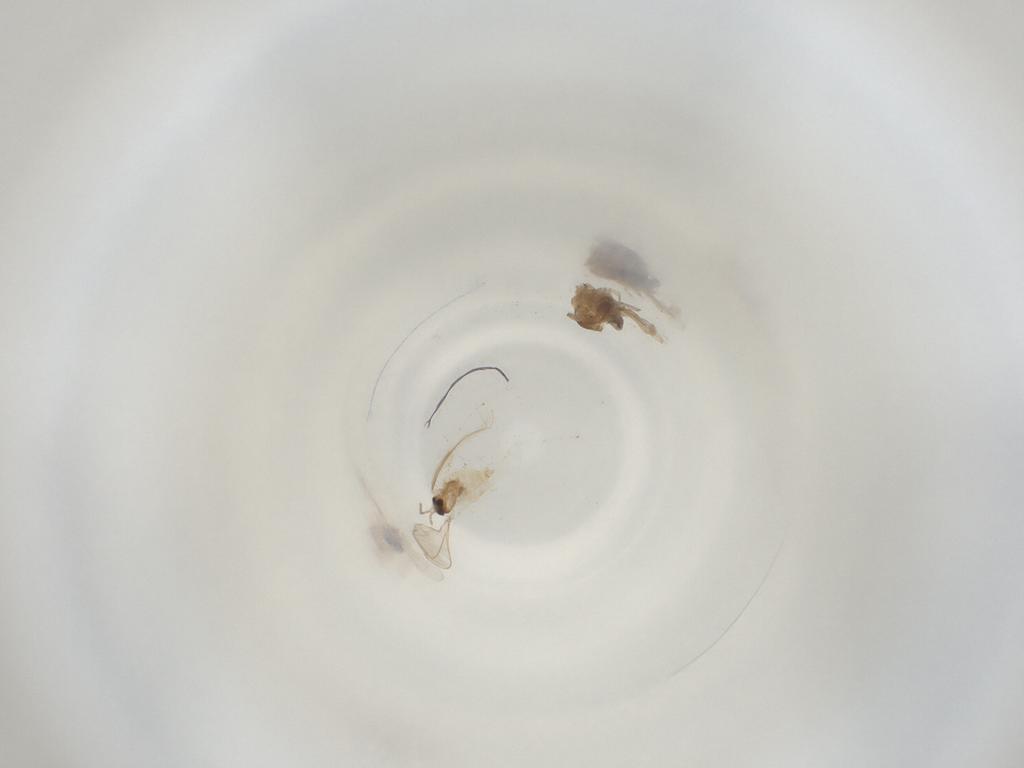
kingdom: Animalia
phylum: Arthropoda
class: Insecta
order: Diptera
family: Cecidomyiidae
